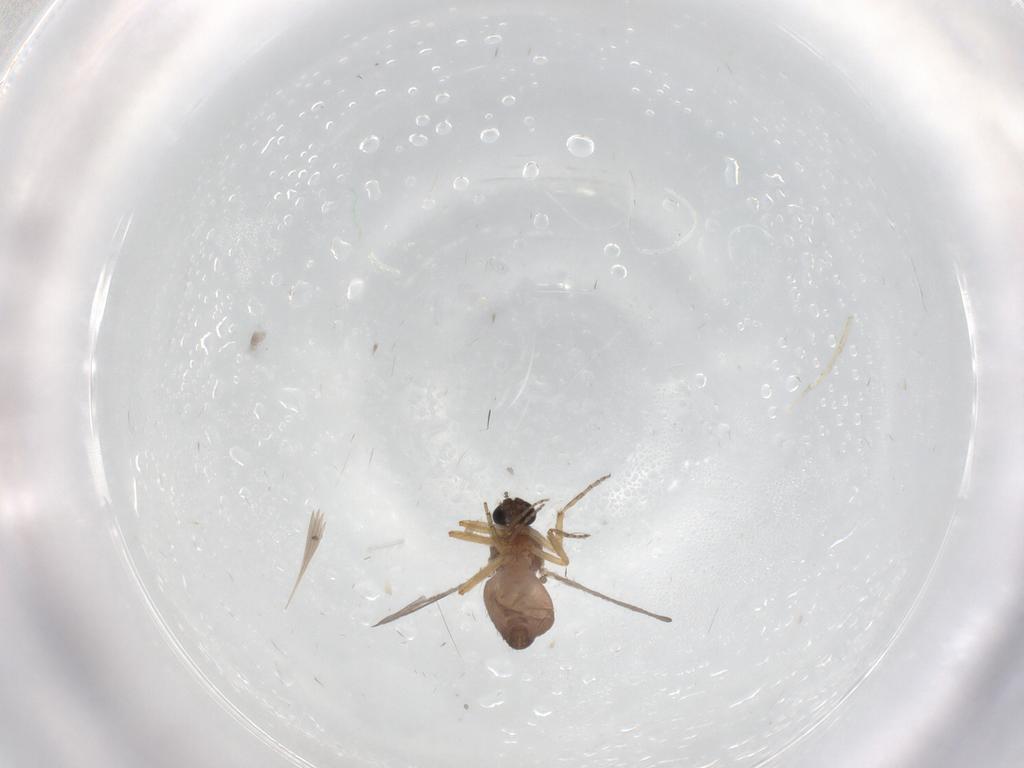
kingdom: Animalia
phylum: Arthropoda
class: Insecta
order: Diptera
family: Ceratopogonidae
